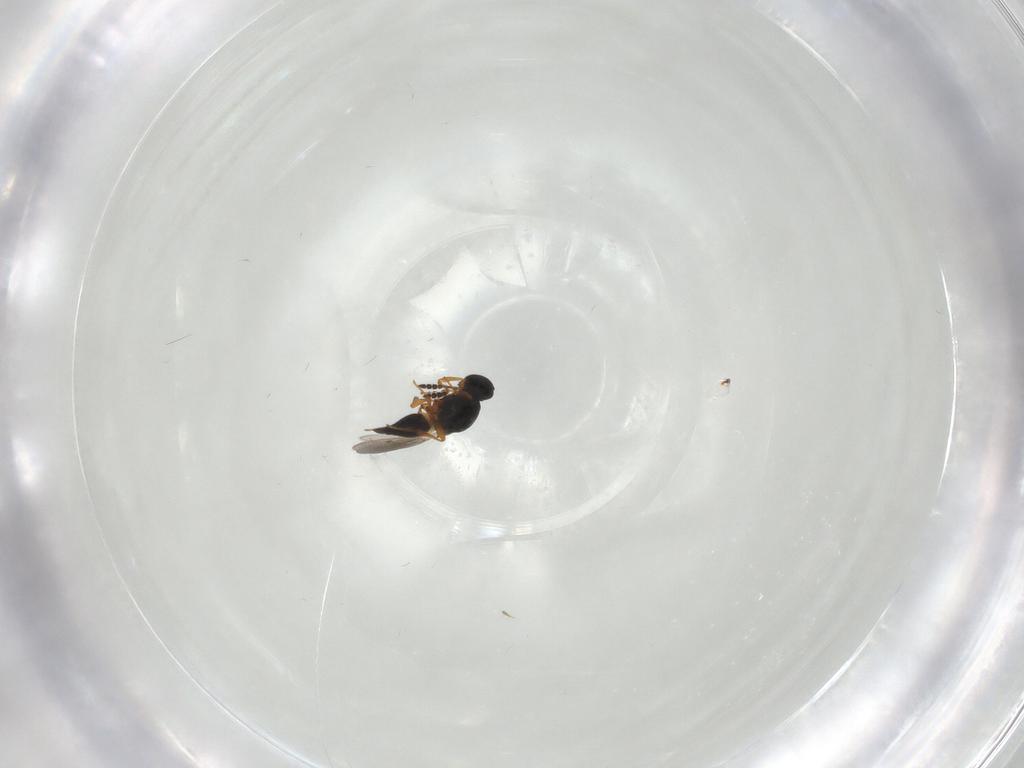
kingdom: Animalia
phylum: Arthropoda
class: Insecta
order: Hymenoptera
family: Platygastridae
